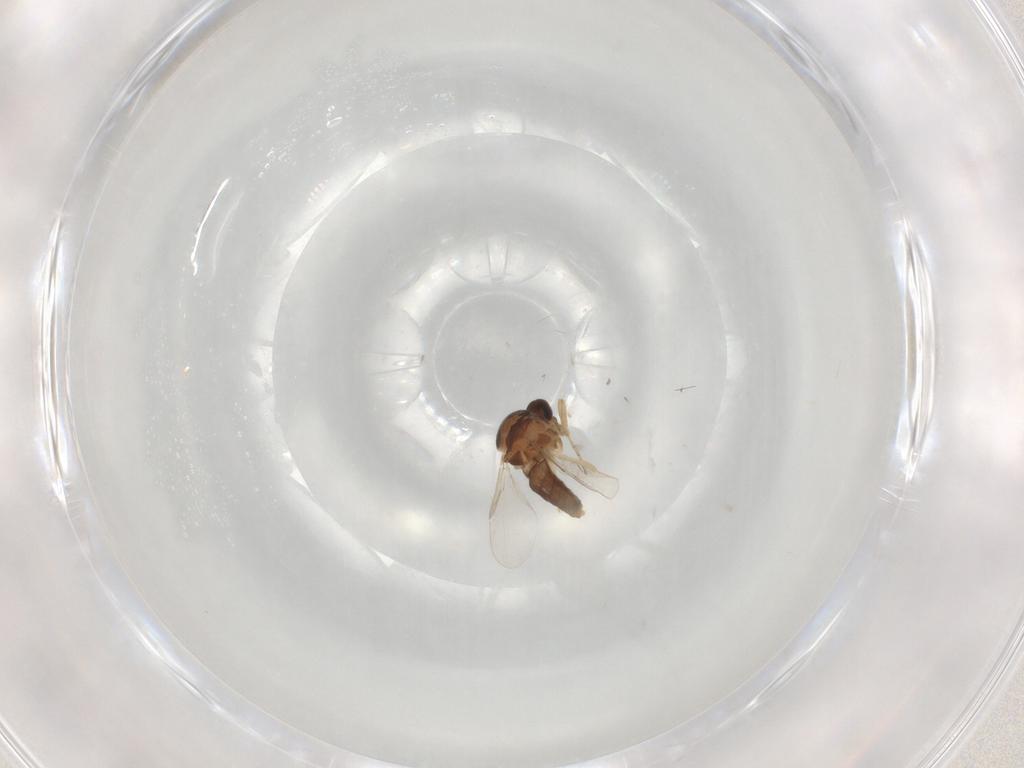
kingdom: Animalia
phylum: Arthropoda
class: Insecta
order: Diptera
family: Ceratopogonidae
